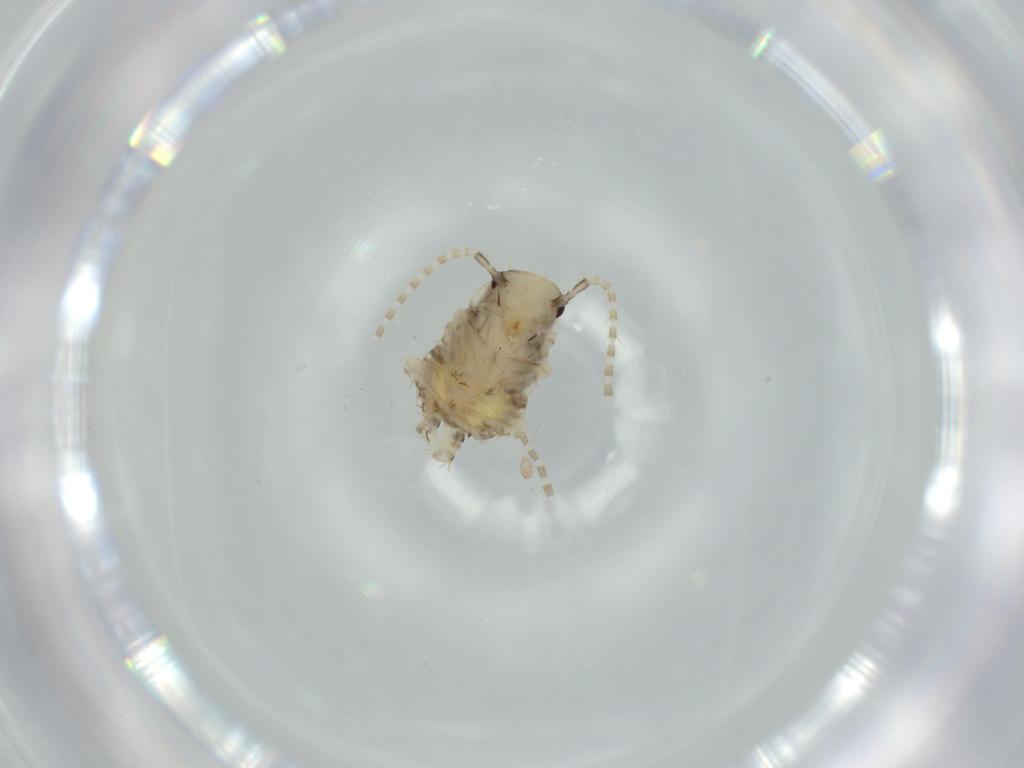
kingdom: Animalia
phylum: Arthropoda
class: Insecta
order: Blattodea
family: Ectobiidae
